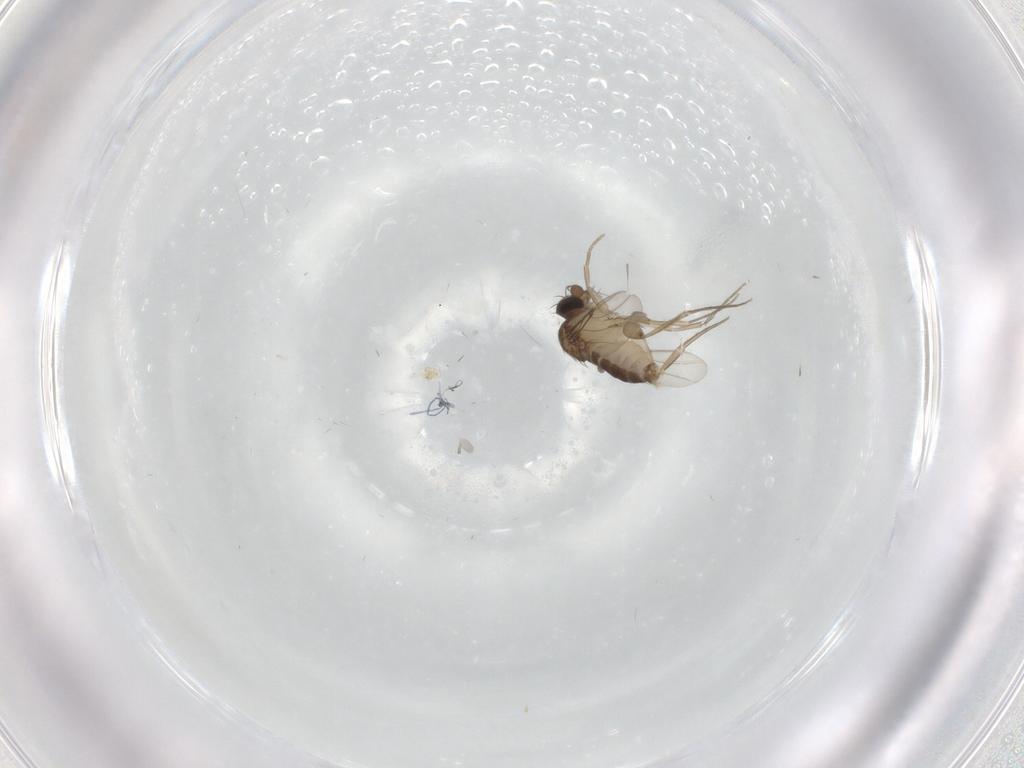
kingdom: Animalia
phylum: Arthropoda
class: Insecta
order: Diptera
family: Phoridae
